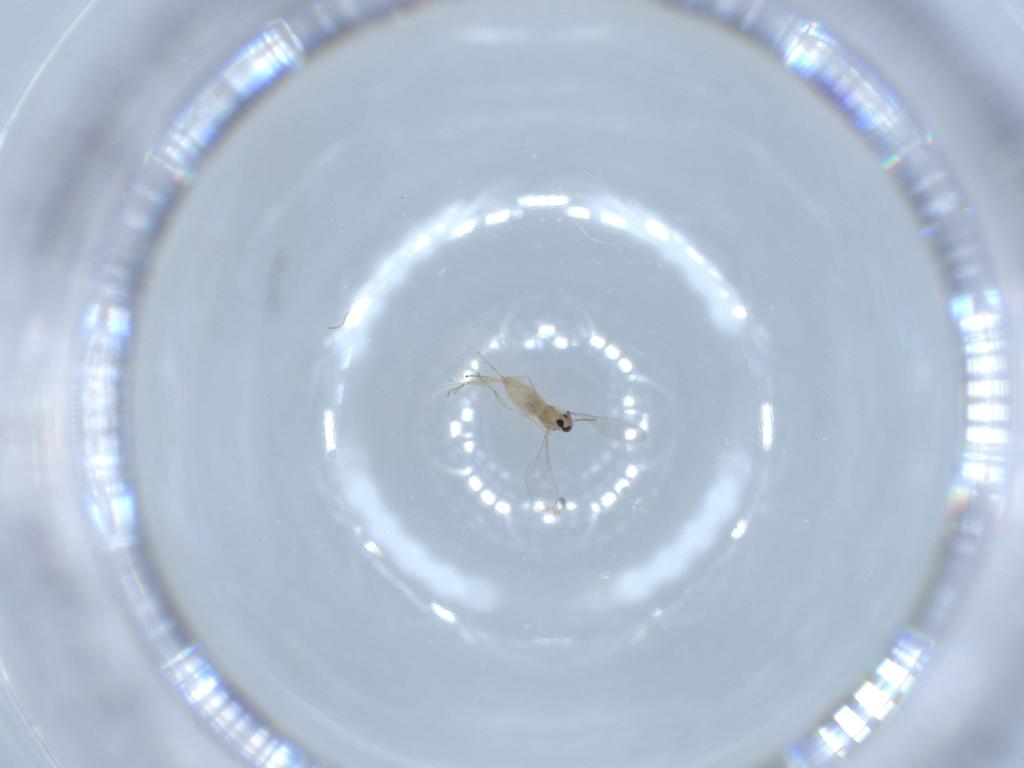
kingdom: Animalia
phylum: Arthropoda
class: Insecta
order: Diptera
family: Cecidomyiidae
